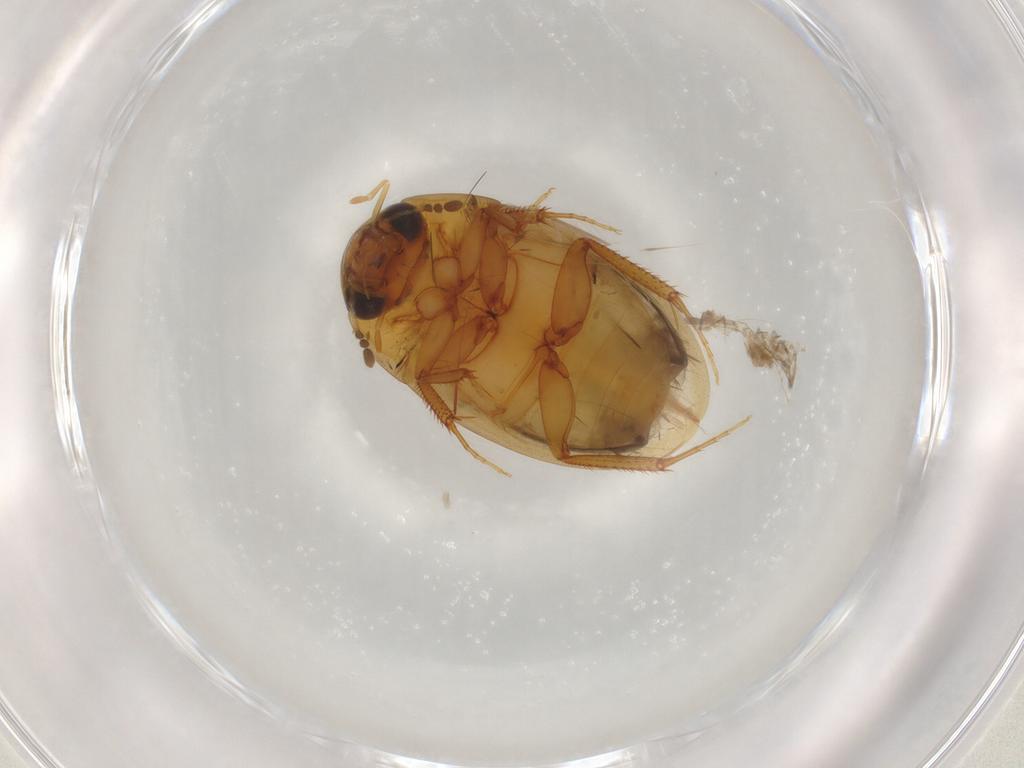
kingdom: Animalia
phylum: Arthropoda
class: Insecta
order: Coleoptera
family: Hydrophilidae
